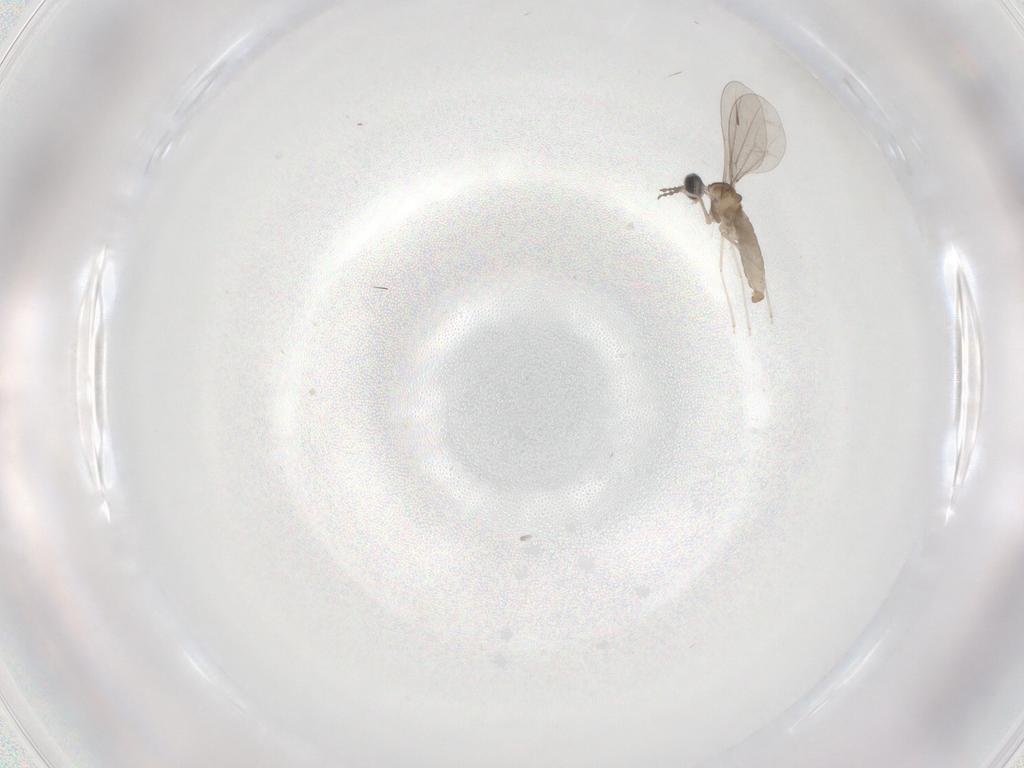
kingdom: Animalia
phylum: Arthropoda
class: Insecta
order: Diptera
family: Cecidomyiidae
